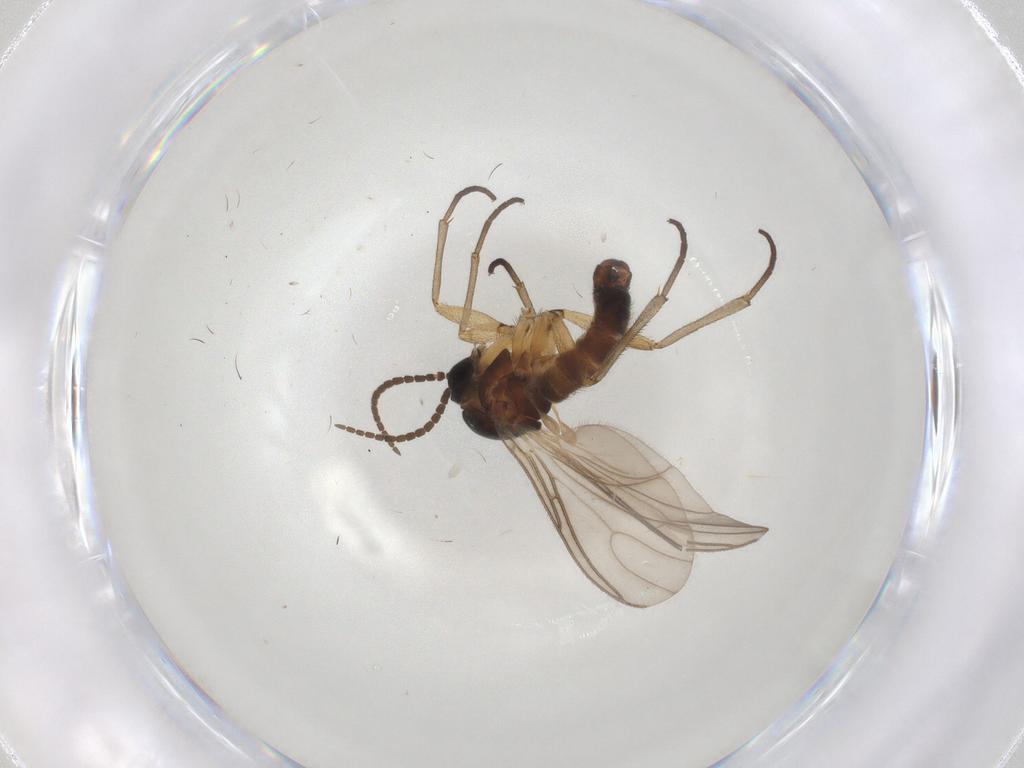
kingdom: Animalia
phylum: Arthropoda
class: Insecta
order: Diptera
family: Sciaridae
